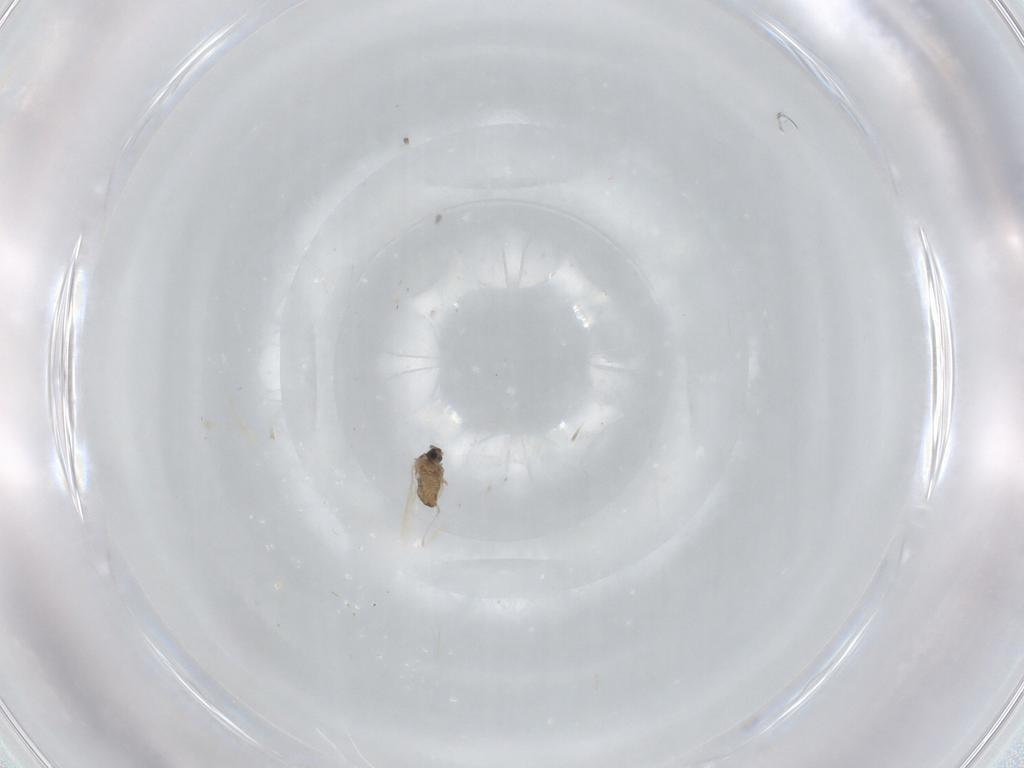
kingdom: Animalia
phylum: Arthropoda
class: Insecta
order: Diptera
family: Cecidomyiidae
